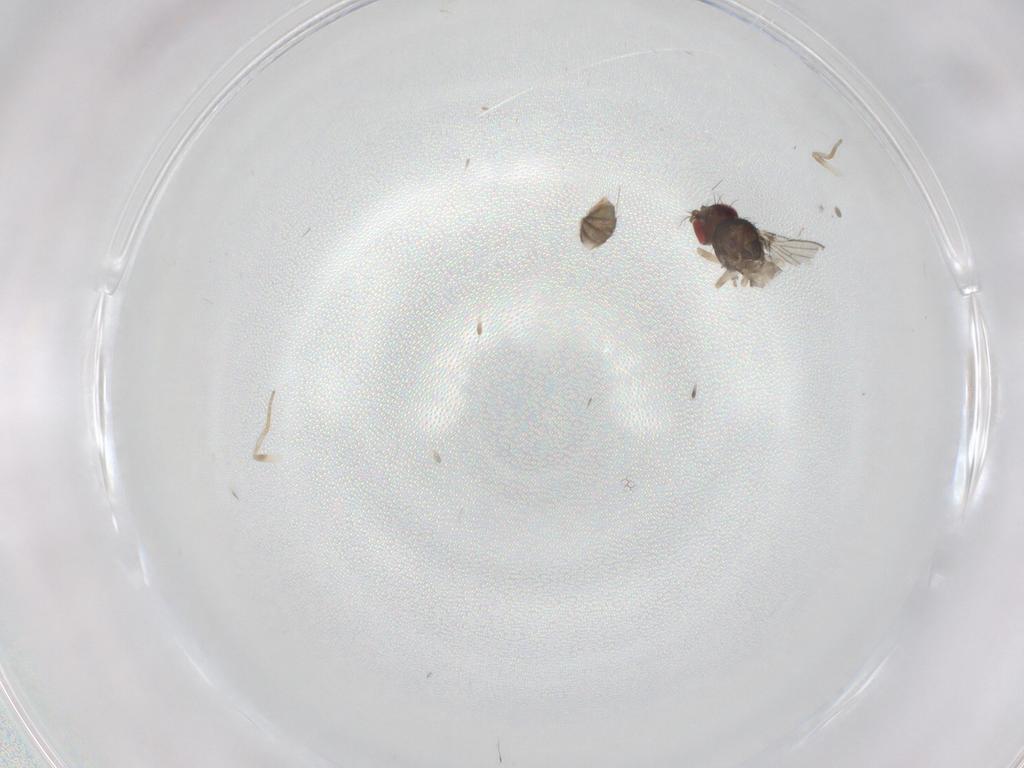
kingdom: Animalia
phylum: Arthropoda
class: Insecta
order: Diptera
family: Drosophilidae
